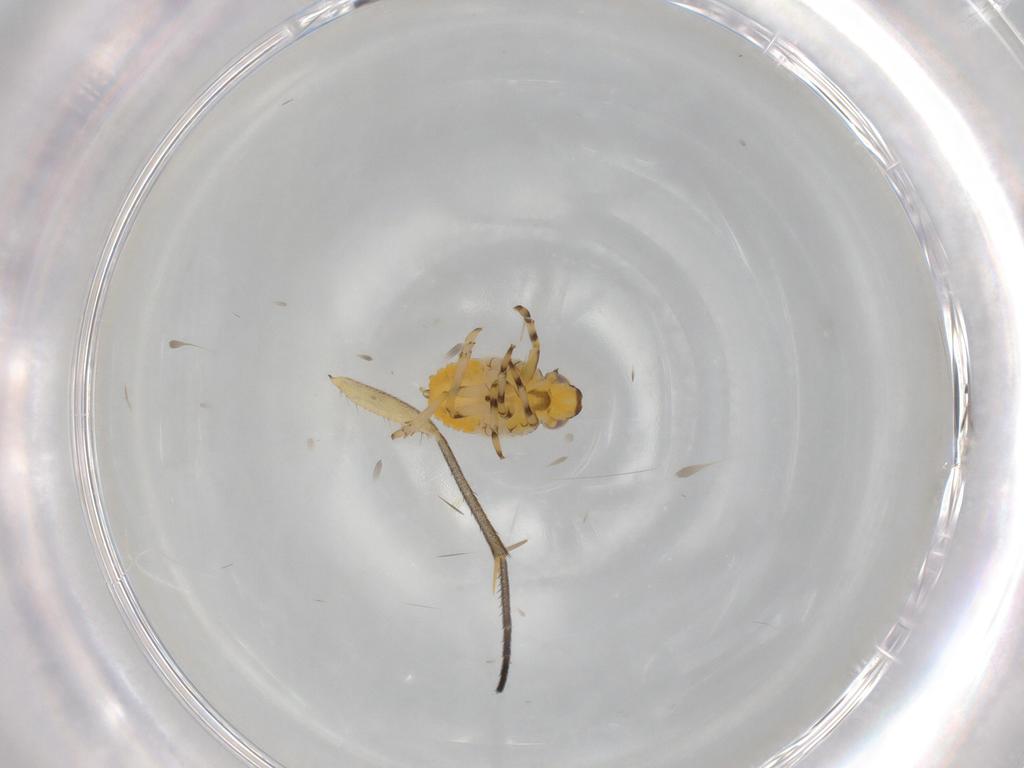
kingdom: Animalia
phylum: Arthropoda
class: Insecta
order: Hemiptera
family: Issidae
